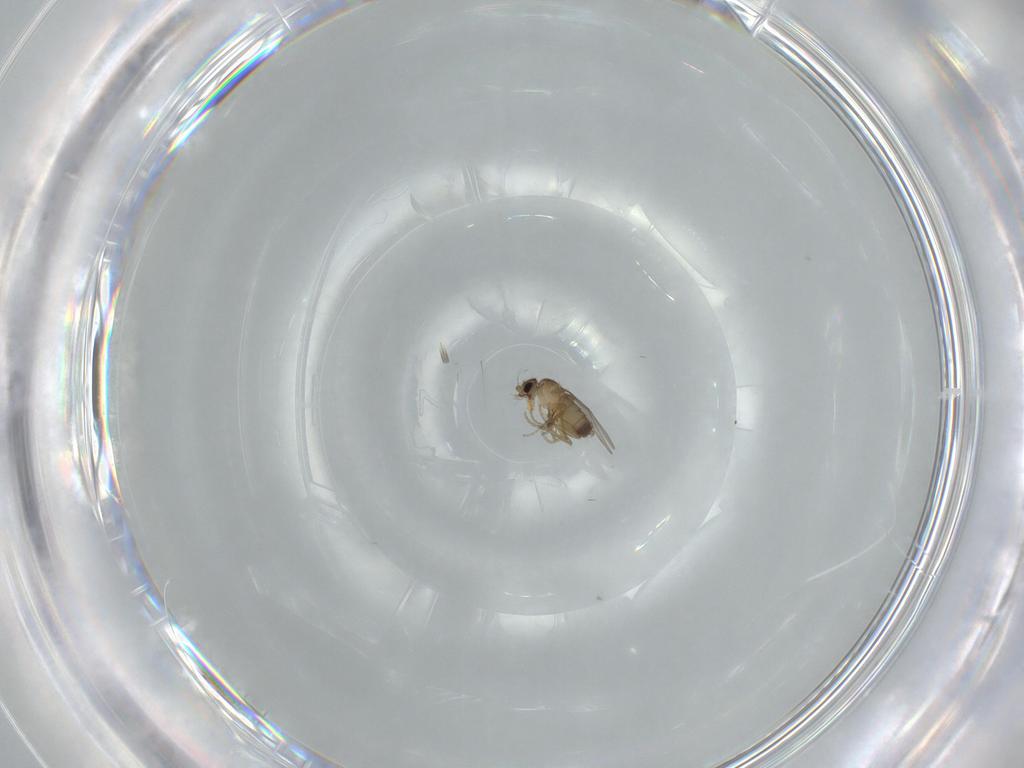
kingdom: Animalia
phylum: Arthropoda
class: Insecta
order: Diptera
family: Dolichopodidae
